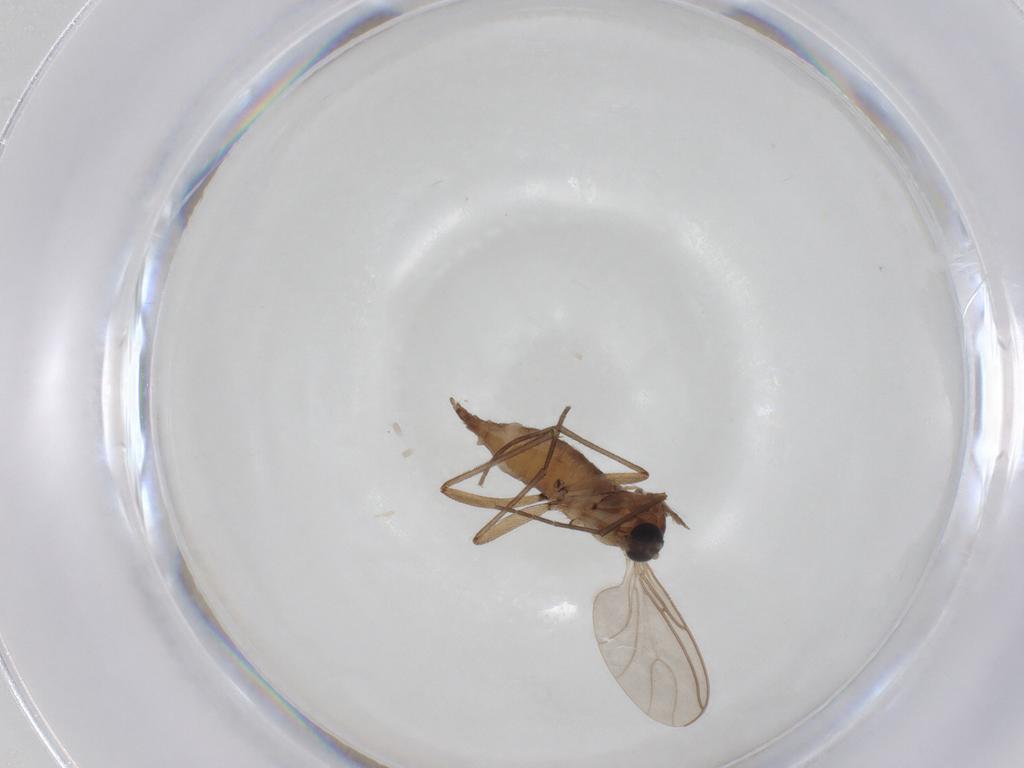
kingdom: Animalia
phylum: Arthropoda
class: Insecta
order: Diptera
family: Sciaridae
